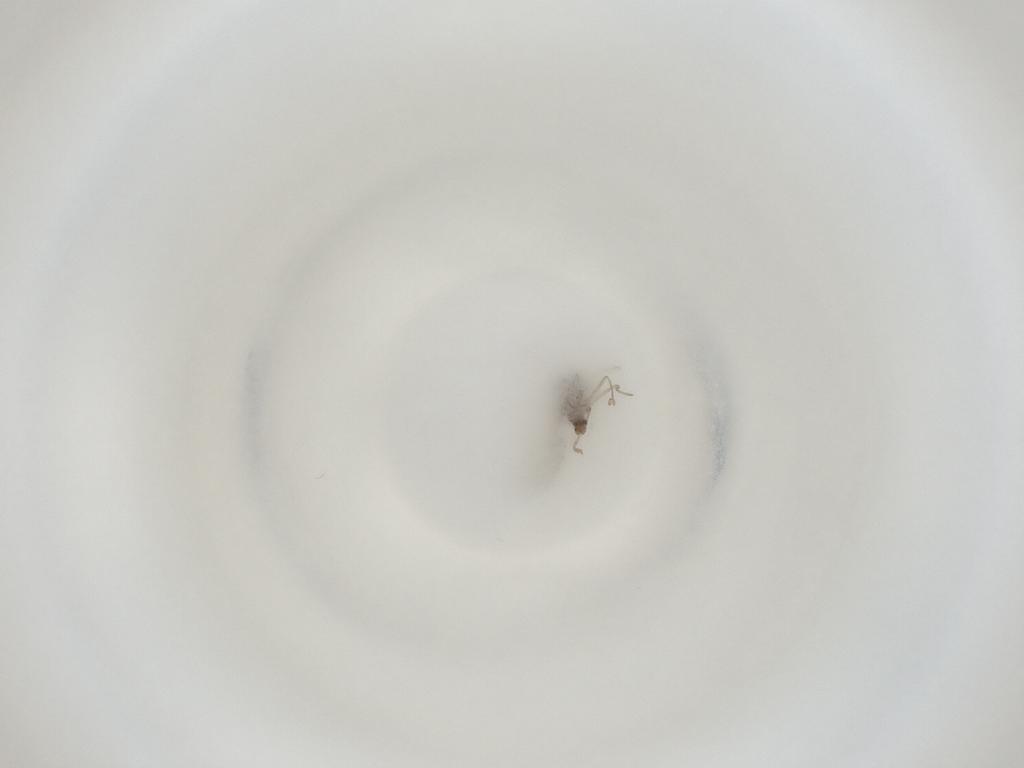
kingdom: Animalia
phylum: Arthropoda
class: Insecta
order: Diptera
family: Cecidomyiidae
